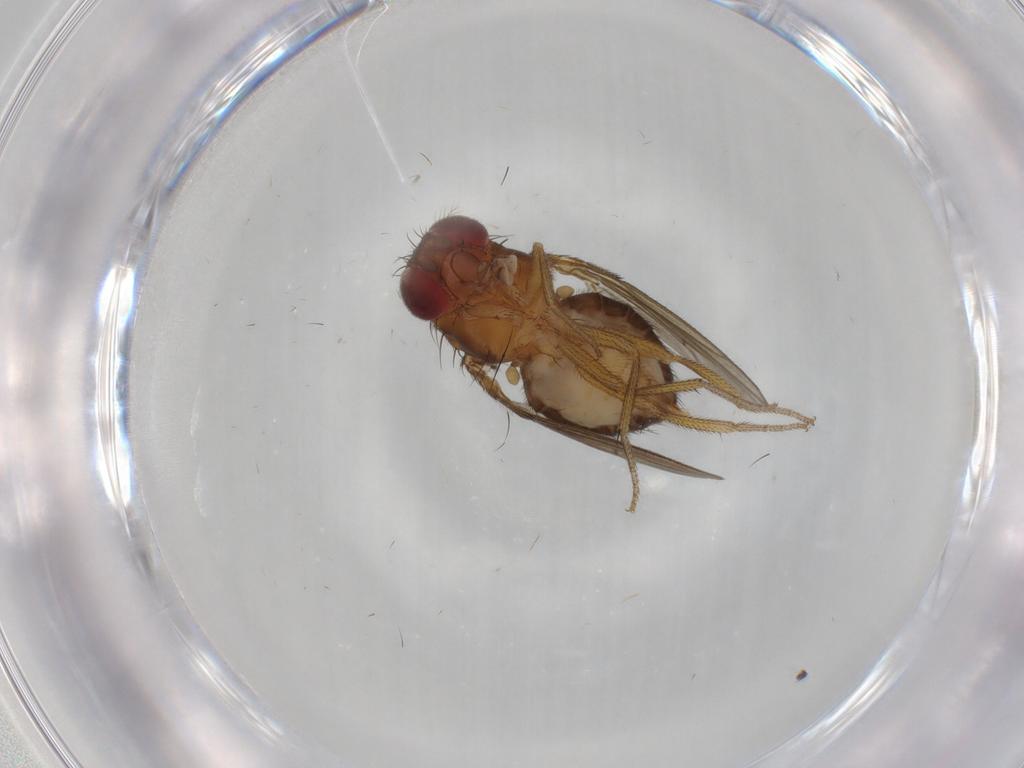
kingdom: Animalia
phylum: Arthropoda
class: Insecta
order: Diptera
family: Drosophilidae
